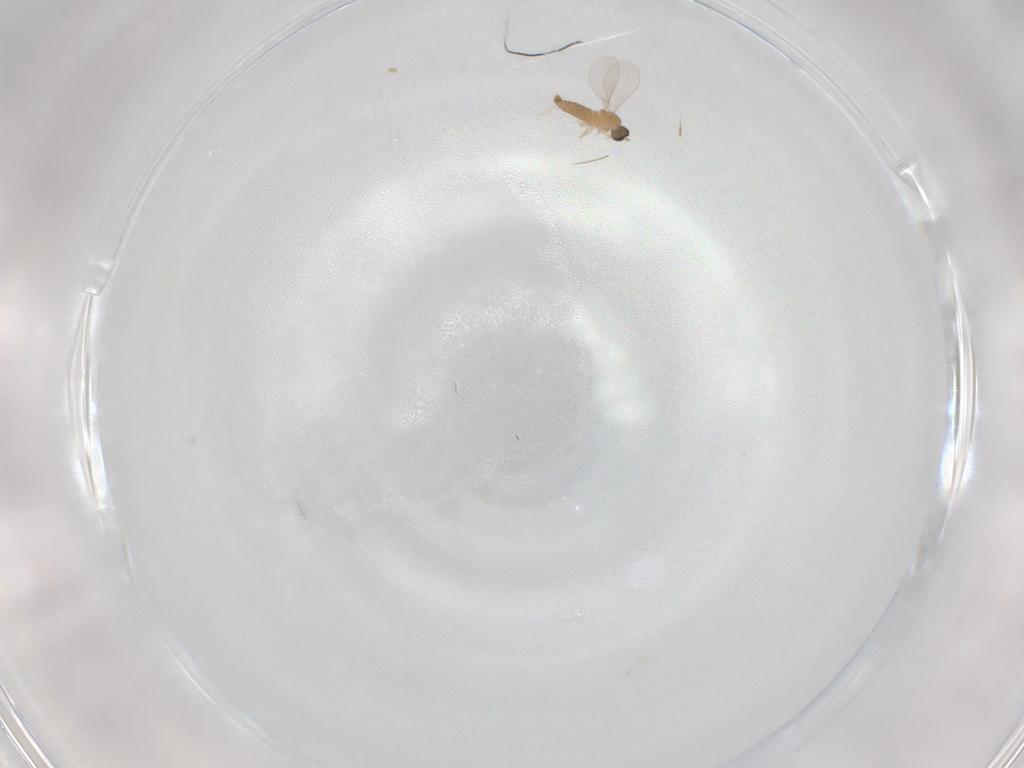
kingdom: Animalia
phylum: Arthropoda
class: Insecta
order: Diptera
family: Cecidomyiidae
